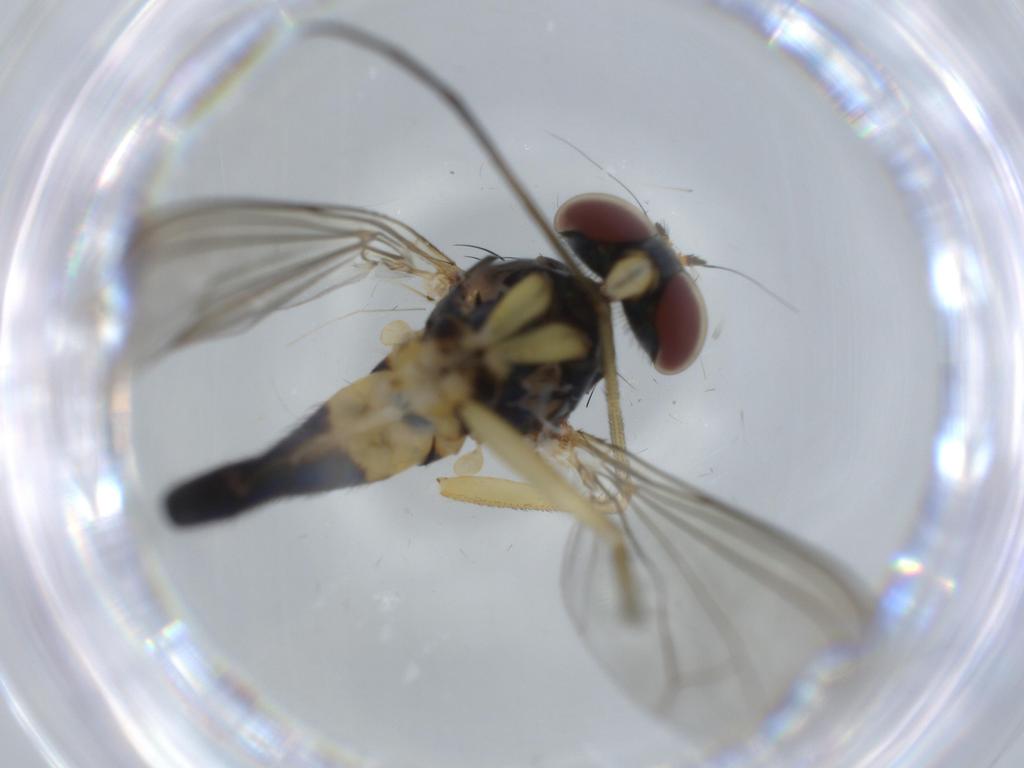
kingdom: Animalia
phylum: Arthropoda
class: Insecta
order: Diptera
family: Dolichopodidae
